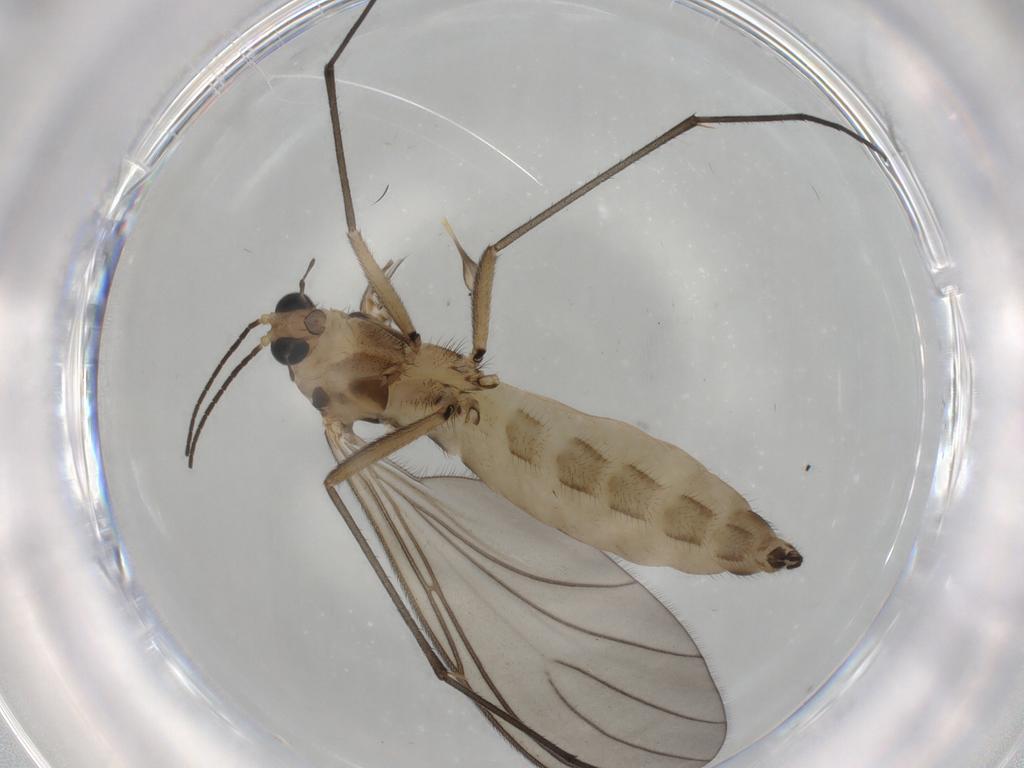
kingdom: Animalia
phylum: Arthropoda
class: Insecta
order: Diptera
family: Sciaridae
